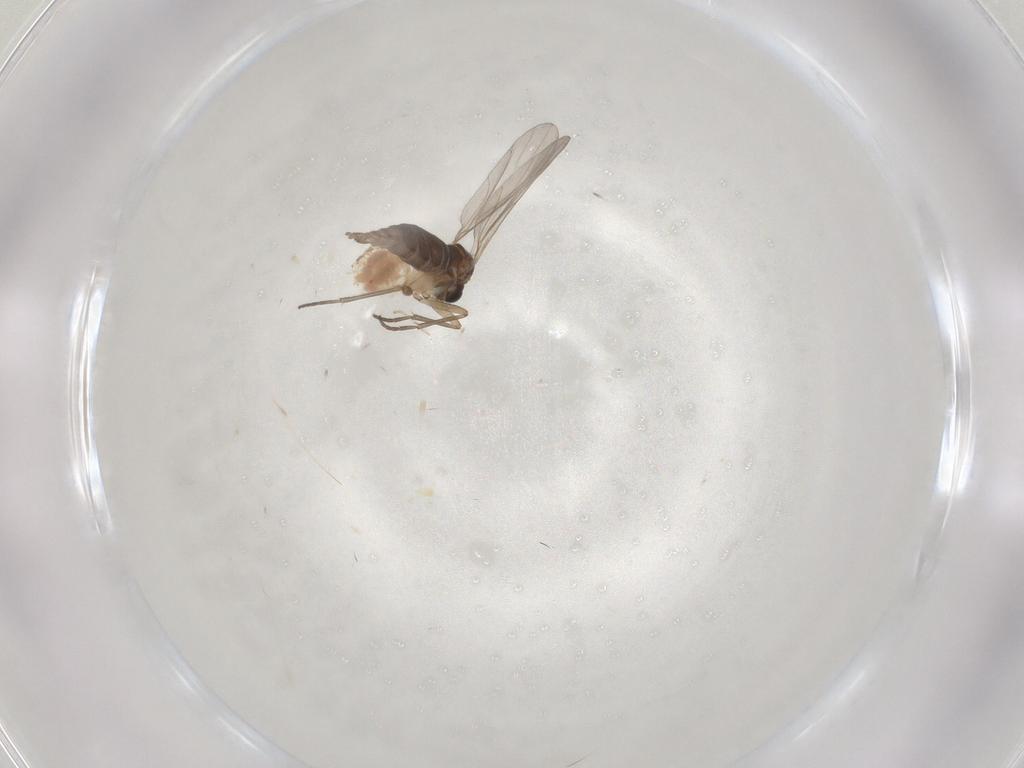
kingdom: Animalia
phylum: Arthropoda
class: Insecta
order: Diptera
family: Sciaridae
